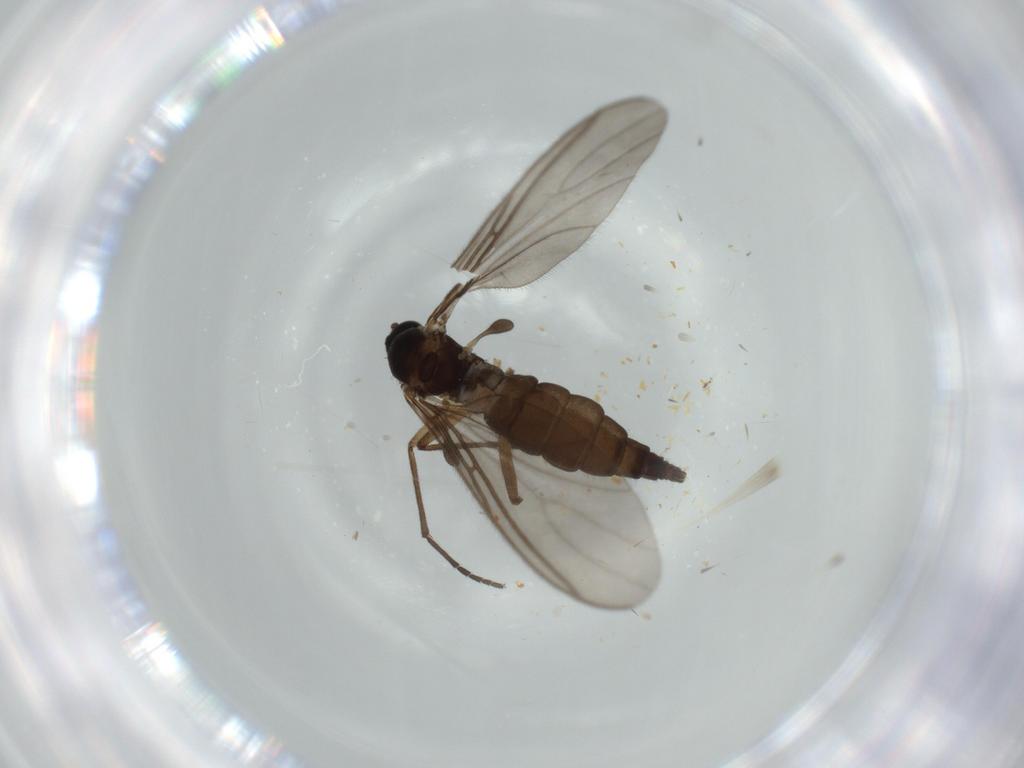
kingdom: Animalia
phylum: Arthropoda
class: Insecta
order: Diptera
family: Sciaridae
